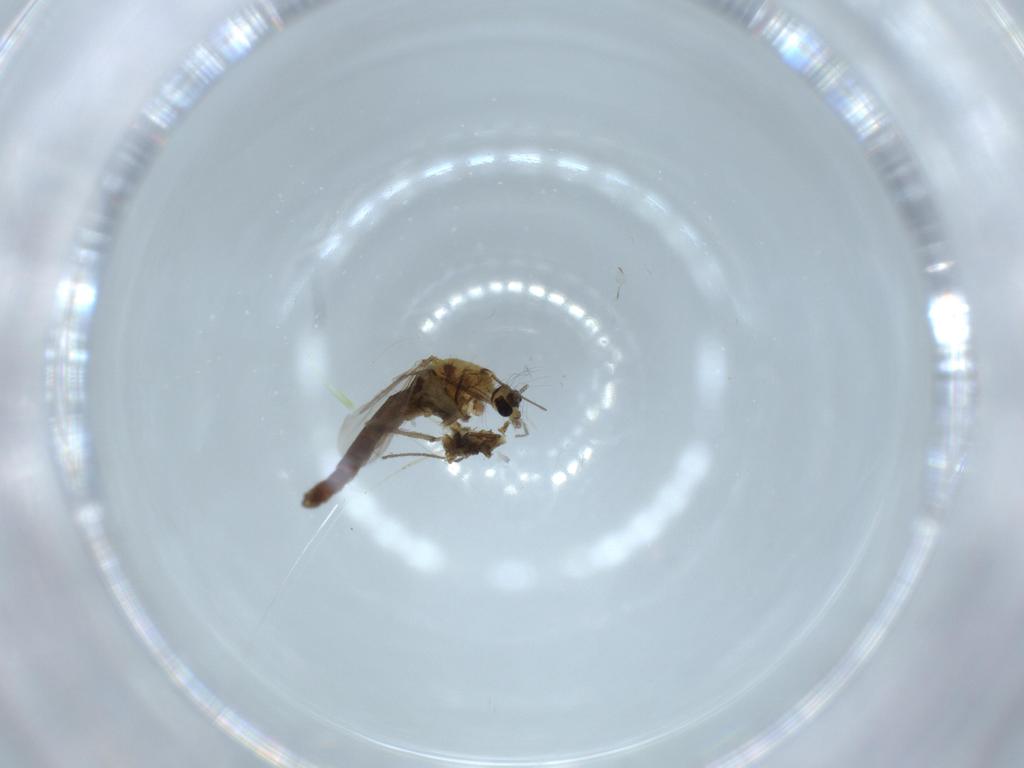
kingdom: Animalia
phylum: Arthropoda
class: Insecta
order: Diptera
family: Chironomidae
